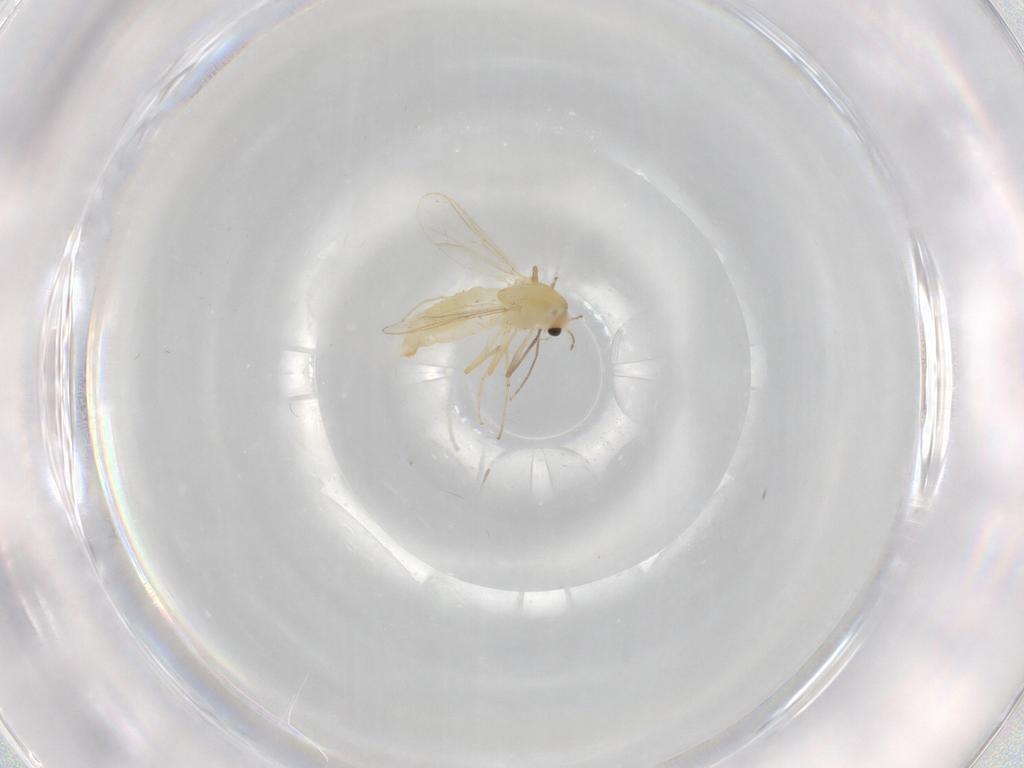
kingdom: Animalia
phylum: Arthropoda
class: Insecta
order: Diptera
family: Chironomidae
